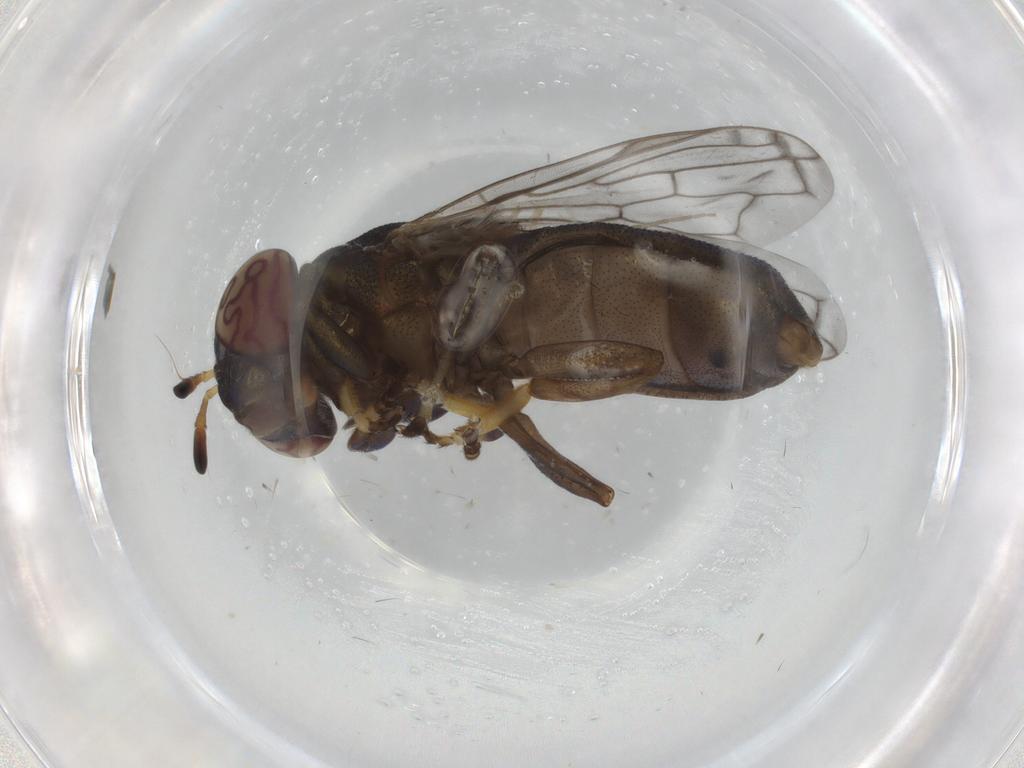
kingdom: Animalia
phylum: Arthropoda
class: Insecta
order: Diptera
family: Syrphidae
